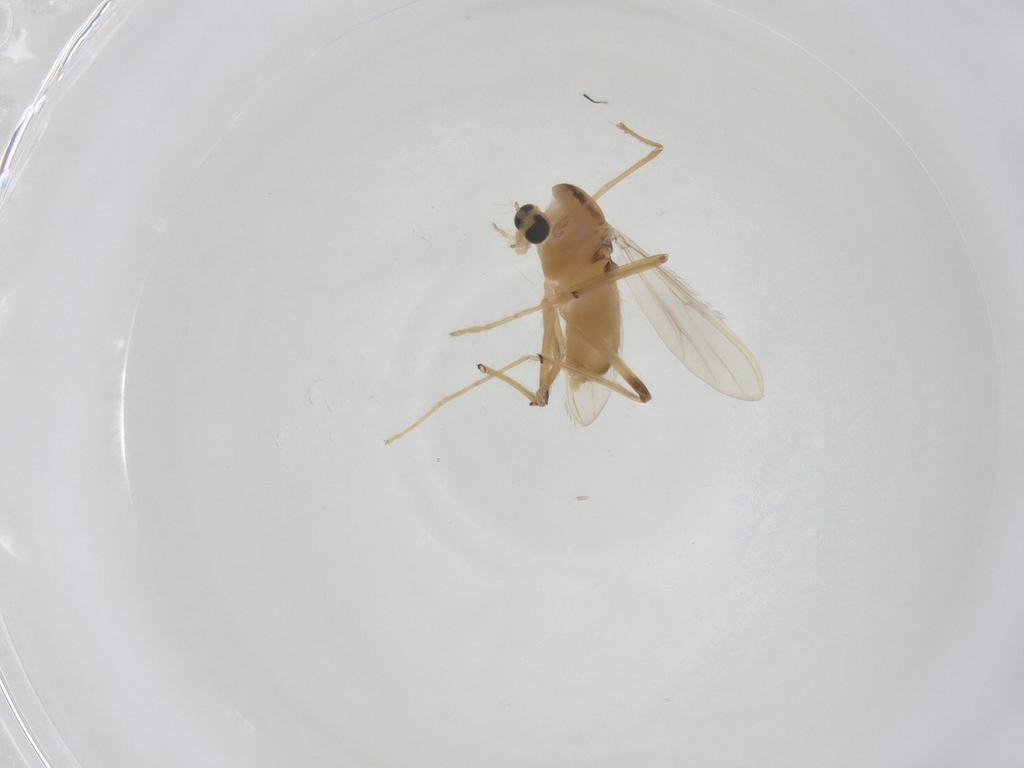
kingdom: Animalia
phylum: Arthropoda
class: Insecta
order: Diptera
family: Chironomidae
